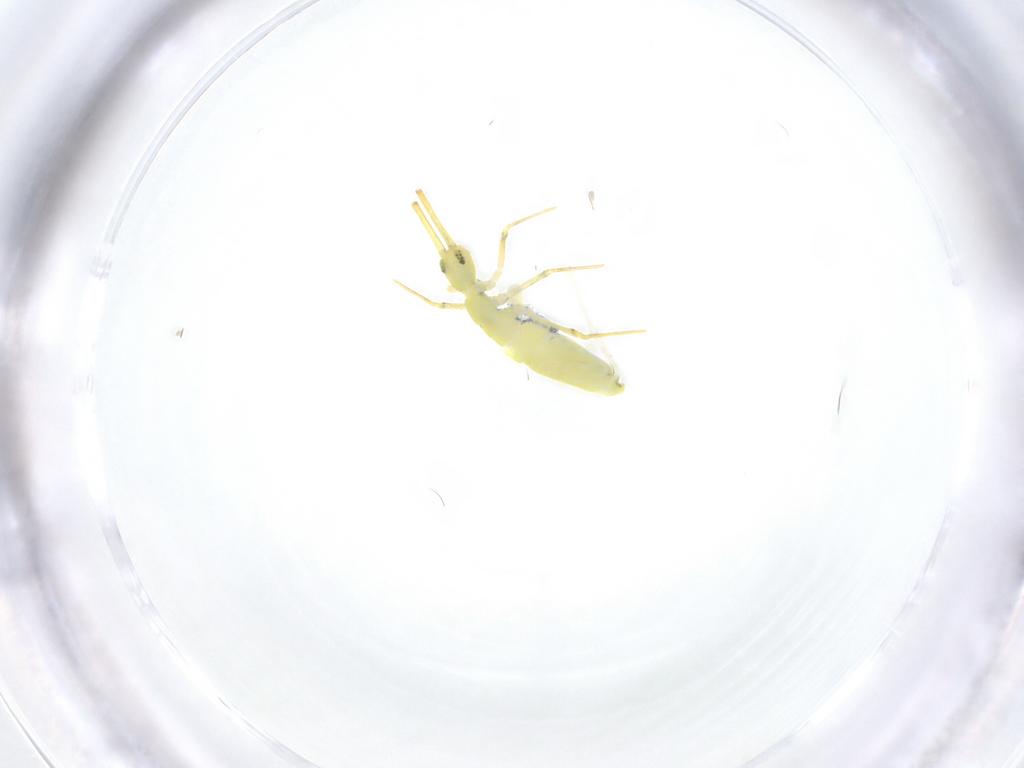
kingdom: Animalia
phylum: Arthropoda
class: Collembola
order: Entomobryomorpha
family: Entomobryidae
